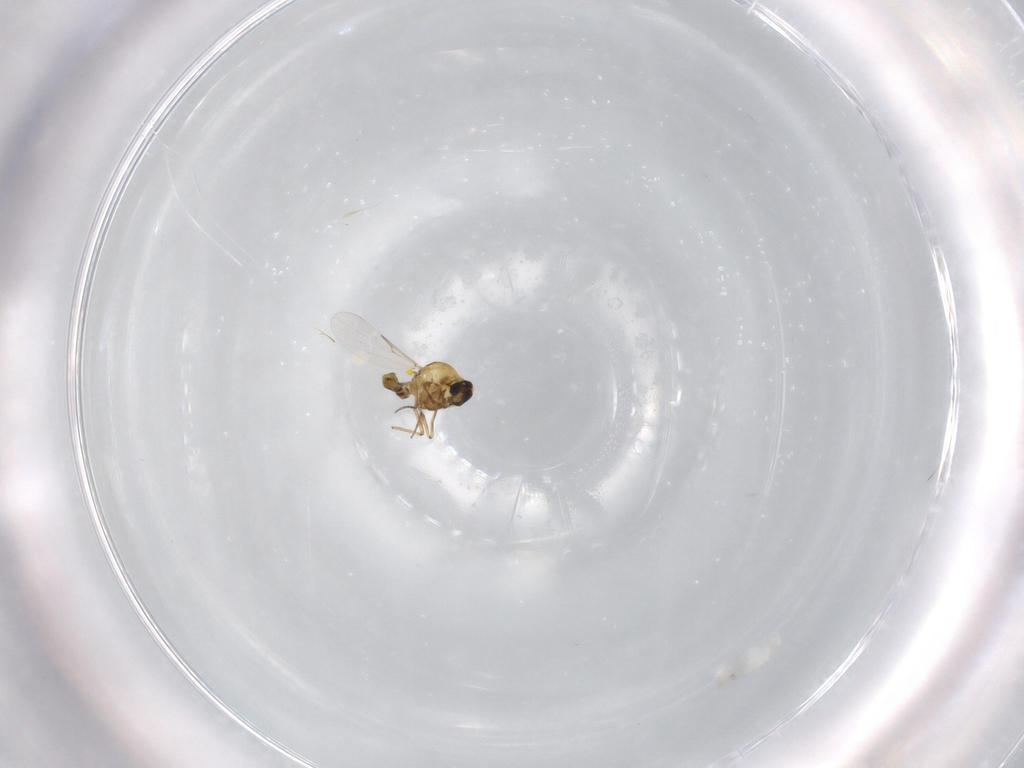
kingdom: Animalia
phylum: Arthropoda
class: Insecta
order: Diptera
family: Ceratopogonidae
